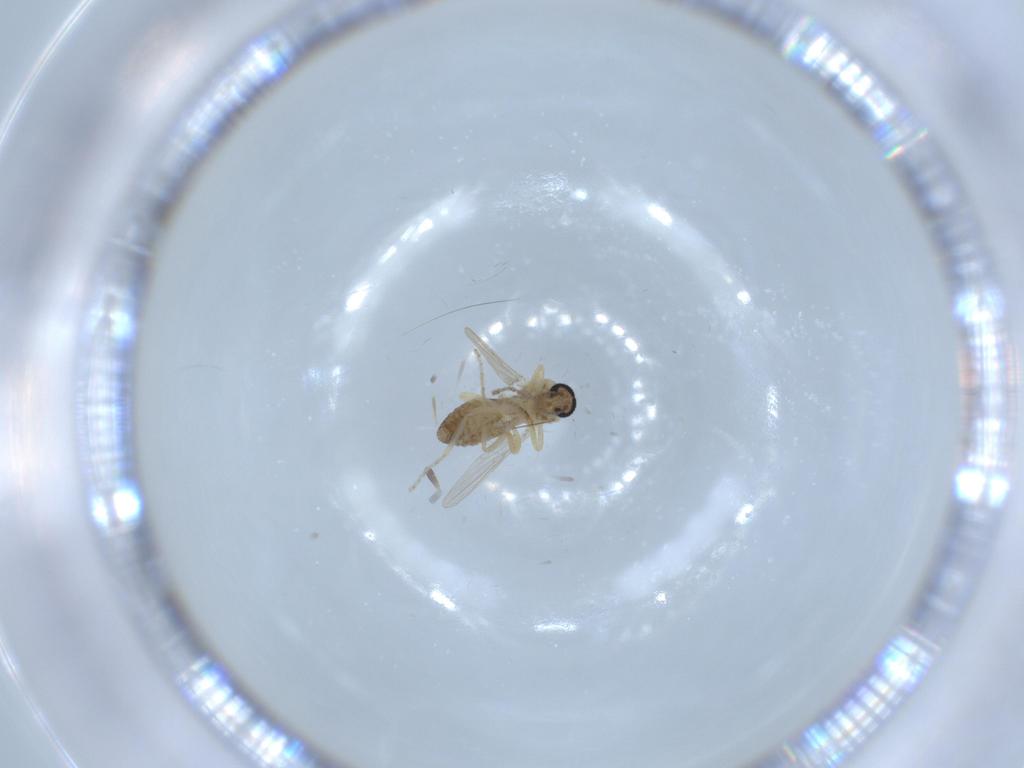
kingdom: Animalia
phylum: Arthropoda
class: Insecta
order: Diptera
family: Ceratopogonidae
